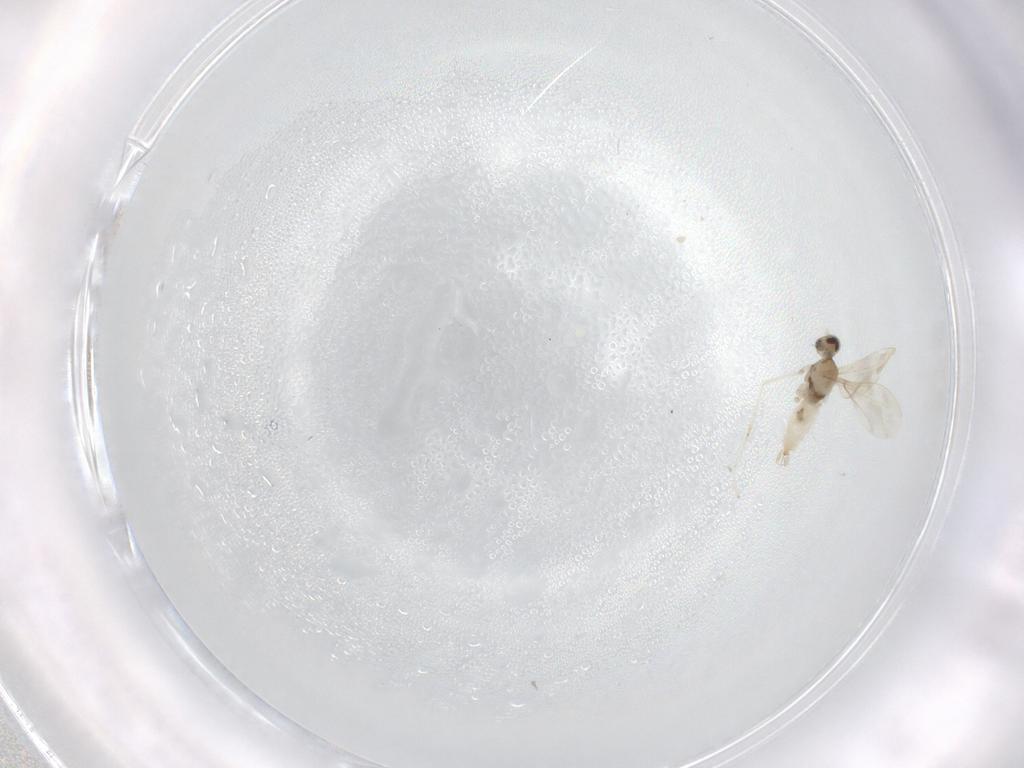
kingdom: Animalia
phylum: Arthropoda
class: Insecta
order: Diptera
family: Cecidomyiidae
